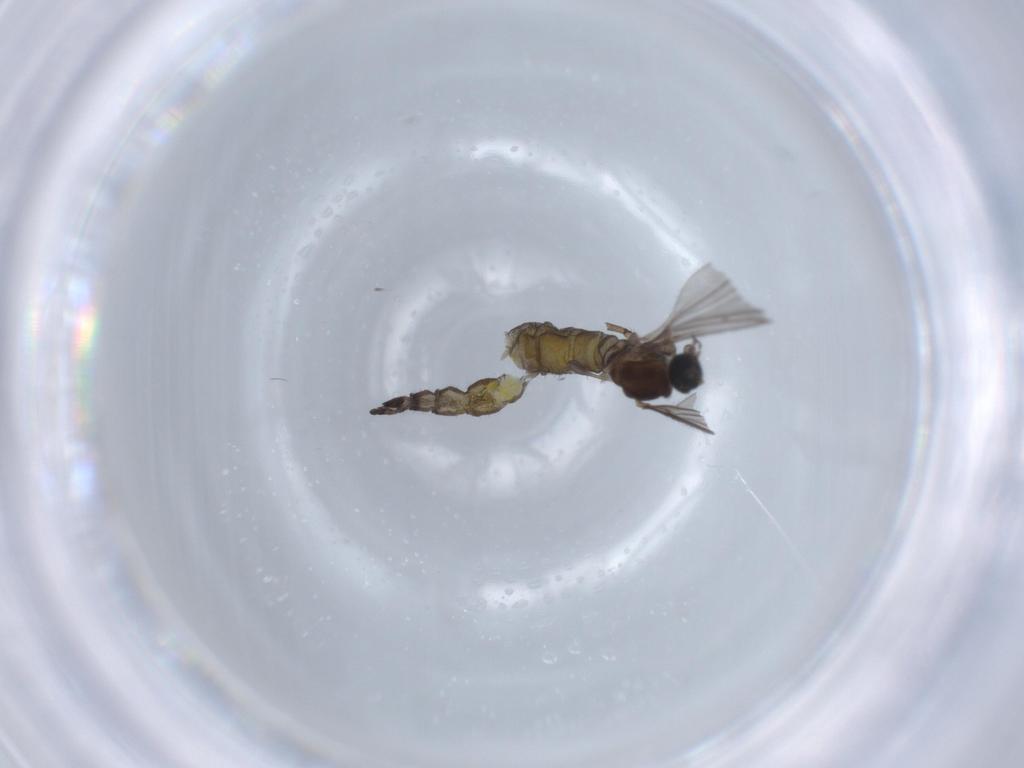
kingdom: Animalia
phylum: Arthropoda
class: Insecta
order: Diptera
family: Sciaridae
